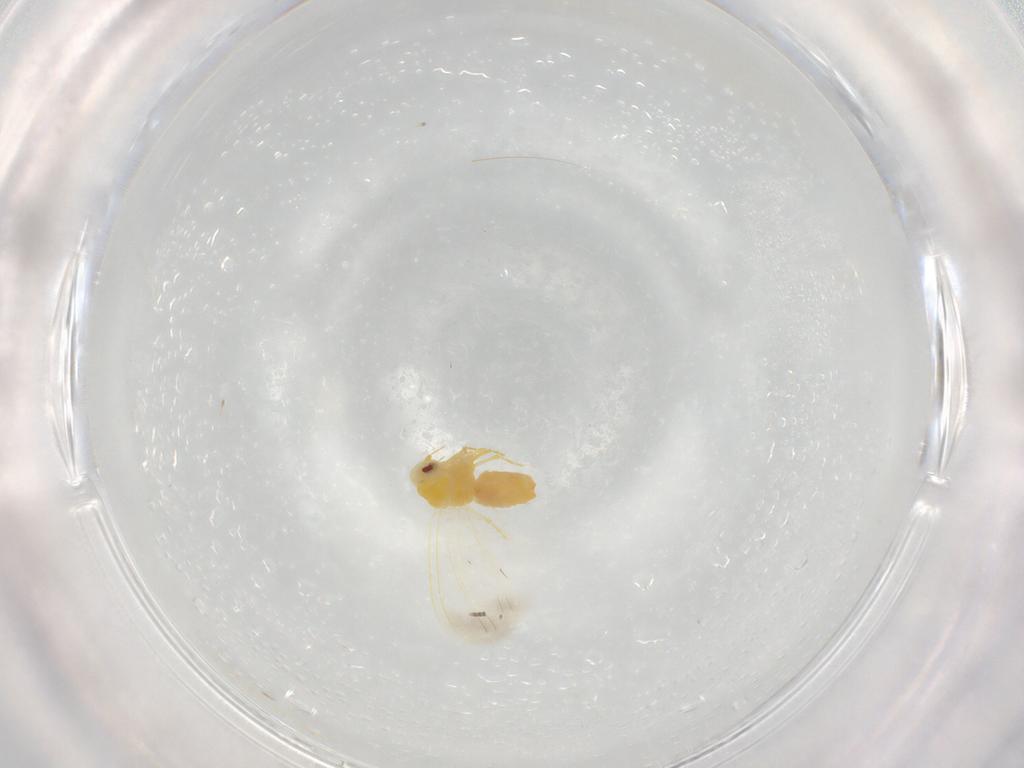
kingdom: Animalia
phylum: Arthropoda
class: Insecta
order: Hemiptera
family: Aleyrodidae
